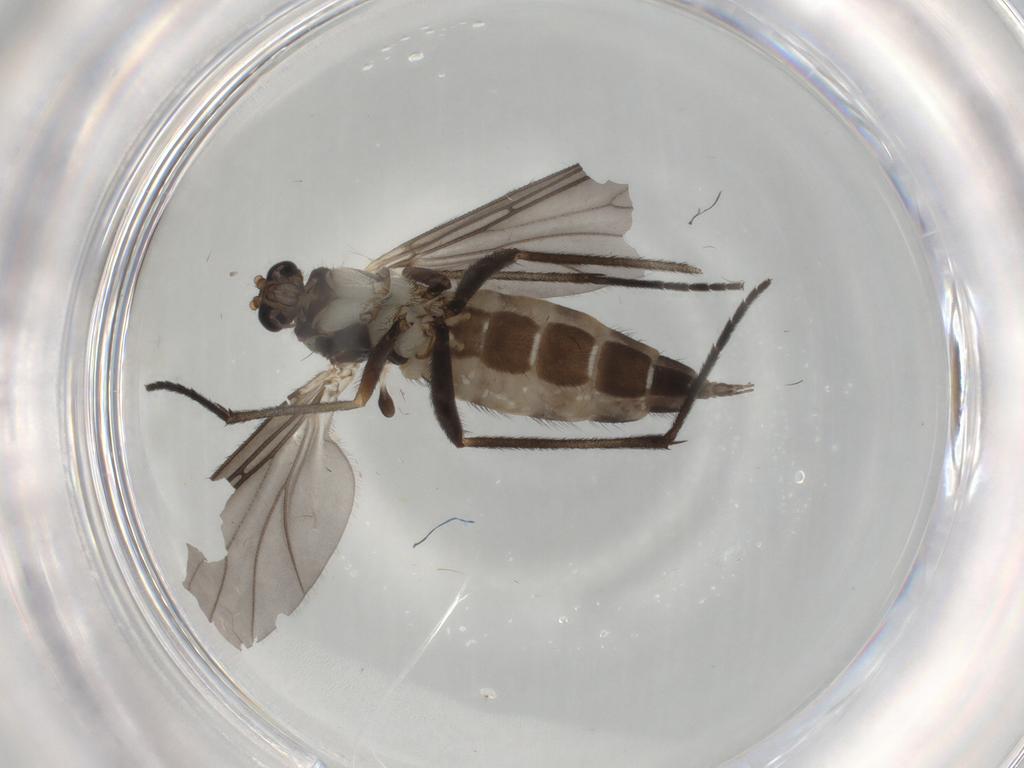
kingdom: Animalia
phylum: Arthropoda
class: Insecta
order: Diptera
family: Sciaridae
